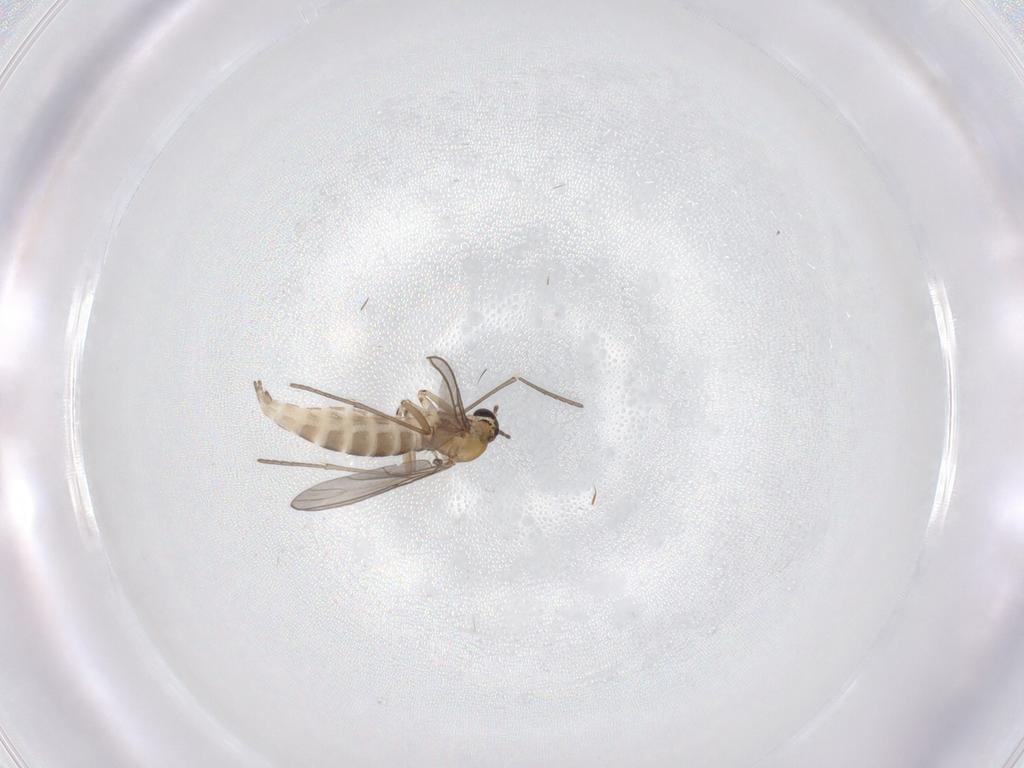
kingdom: Animalia
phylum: Arthropoda
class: Insecta
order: Diptera
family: Sciaridae
